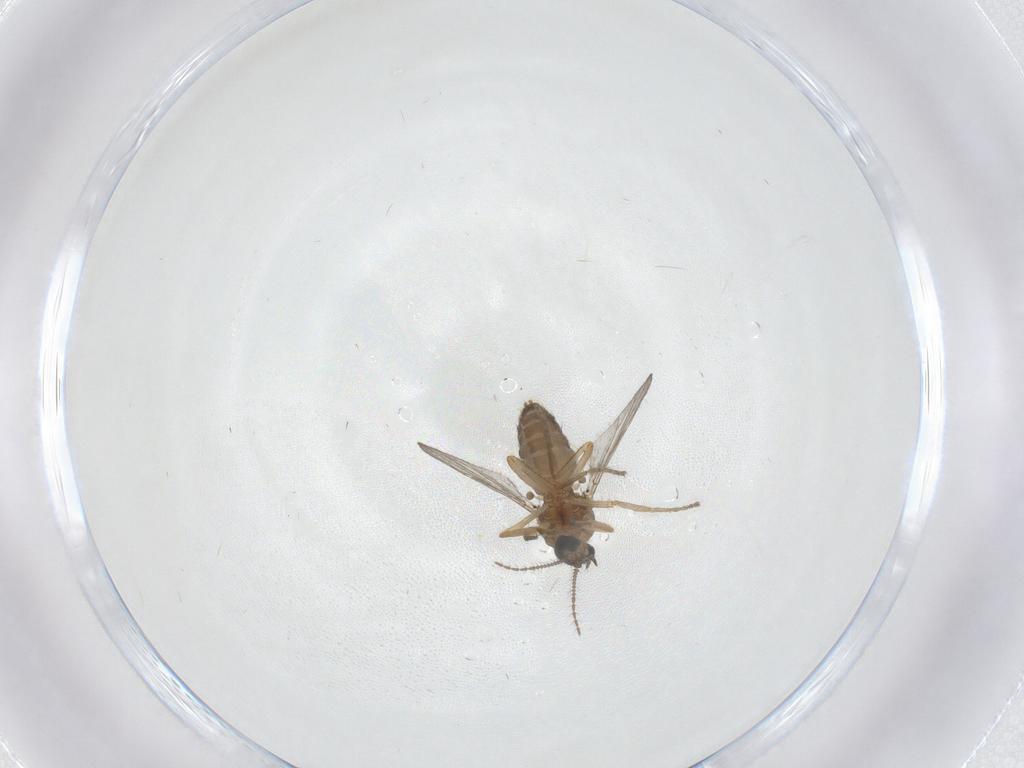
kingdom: Animalia
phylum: Arthropoda
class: Insecta
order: Diptera
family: Ceratopogonidae
